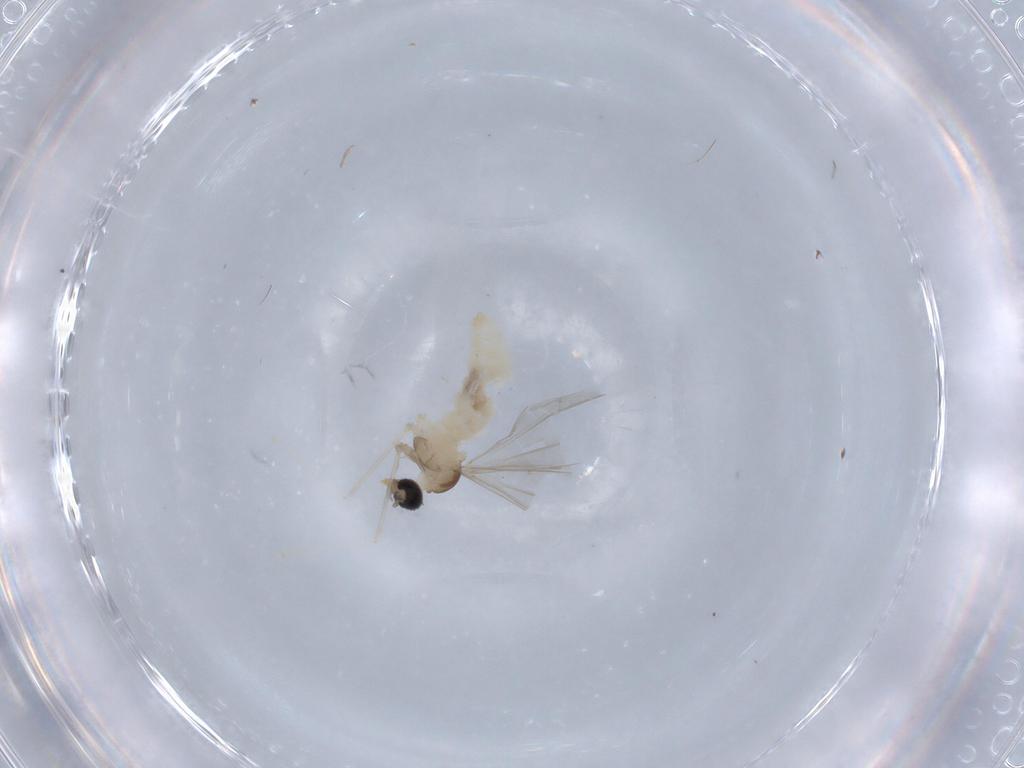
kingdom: Animalia
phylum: Arthropoda
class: Insecta
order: Diptera
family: Cecidomyiidae
